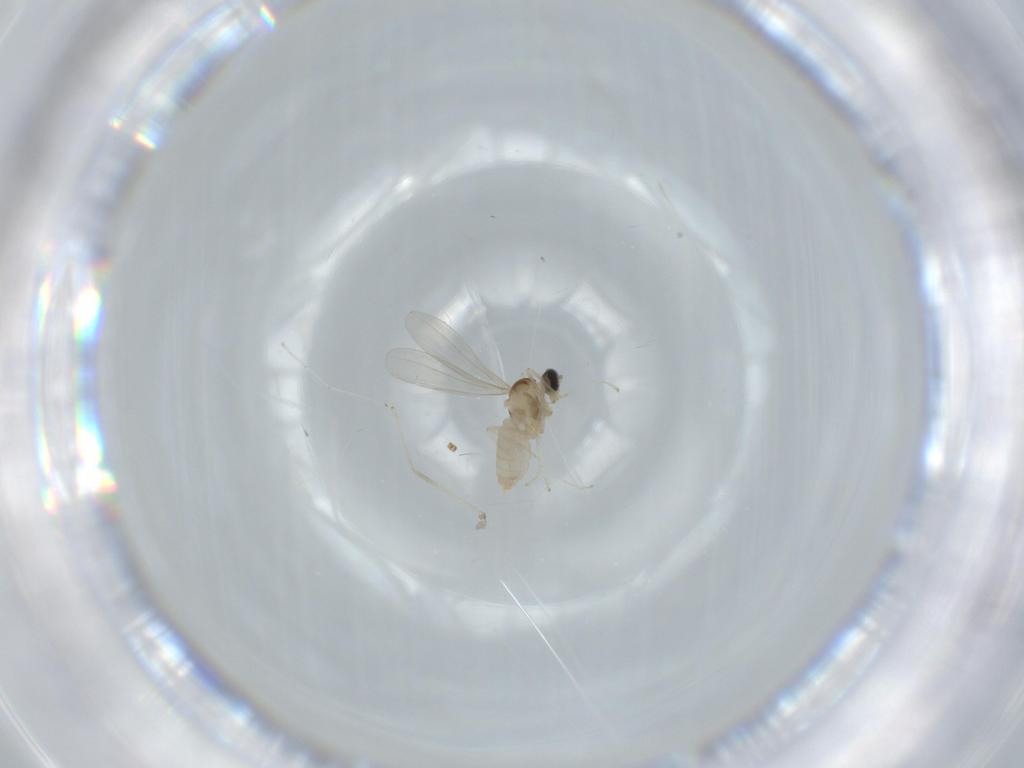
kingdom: Animalia
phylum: Arthropoda
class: Insecta
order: Diptera
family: Cecidomyiidae
